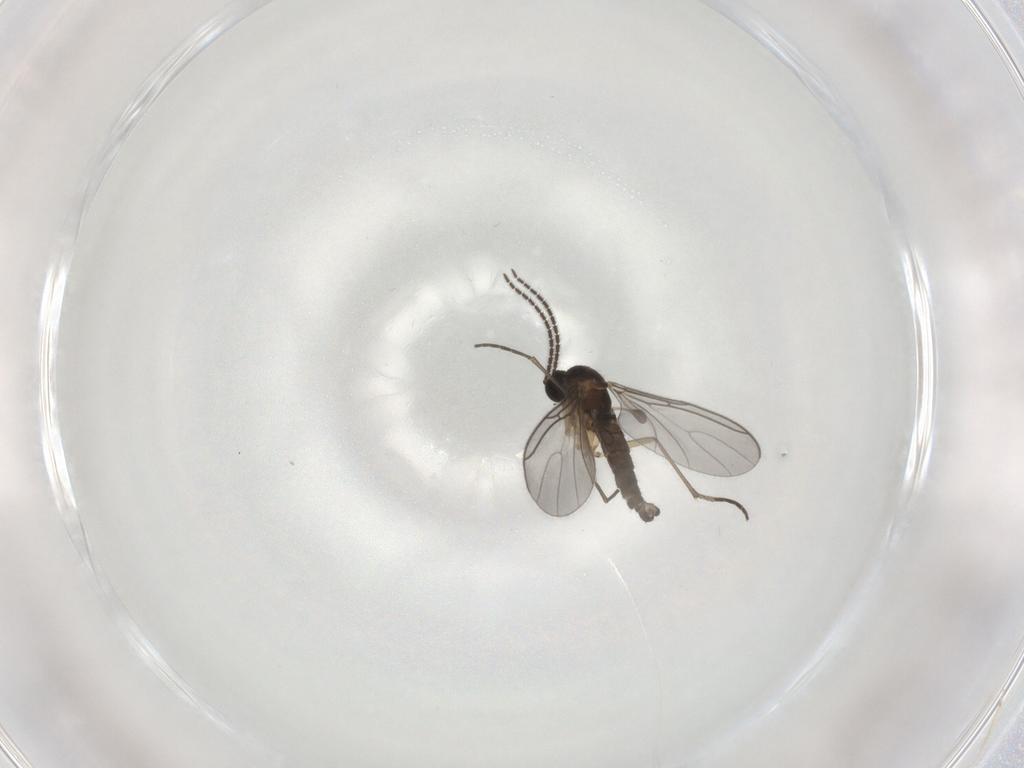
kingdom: Animalia
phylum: Arthropoda
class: Insecta
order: Diptera
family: Sciaridae
